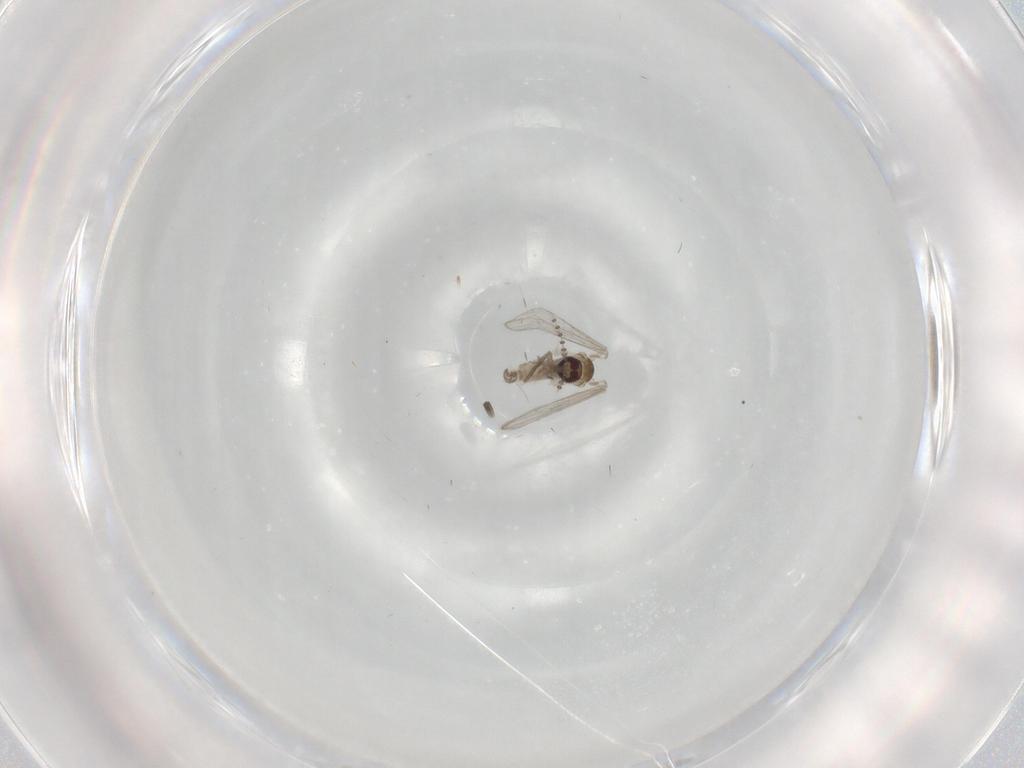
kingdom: Animalia
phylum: Arthropoda
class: Insecta
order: Diptera
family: Psychodidae
